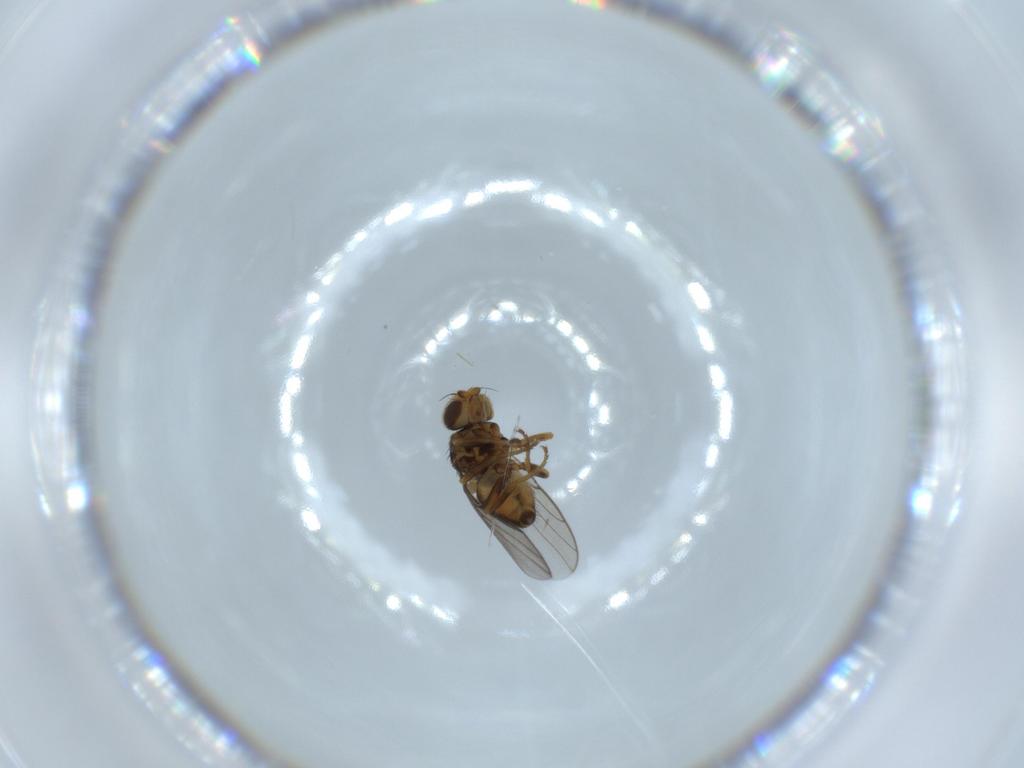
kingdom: Animalia
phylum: Arthropoda
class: Insecta
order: Diptera
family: Chloropidae
